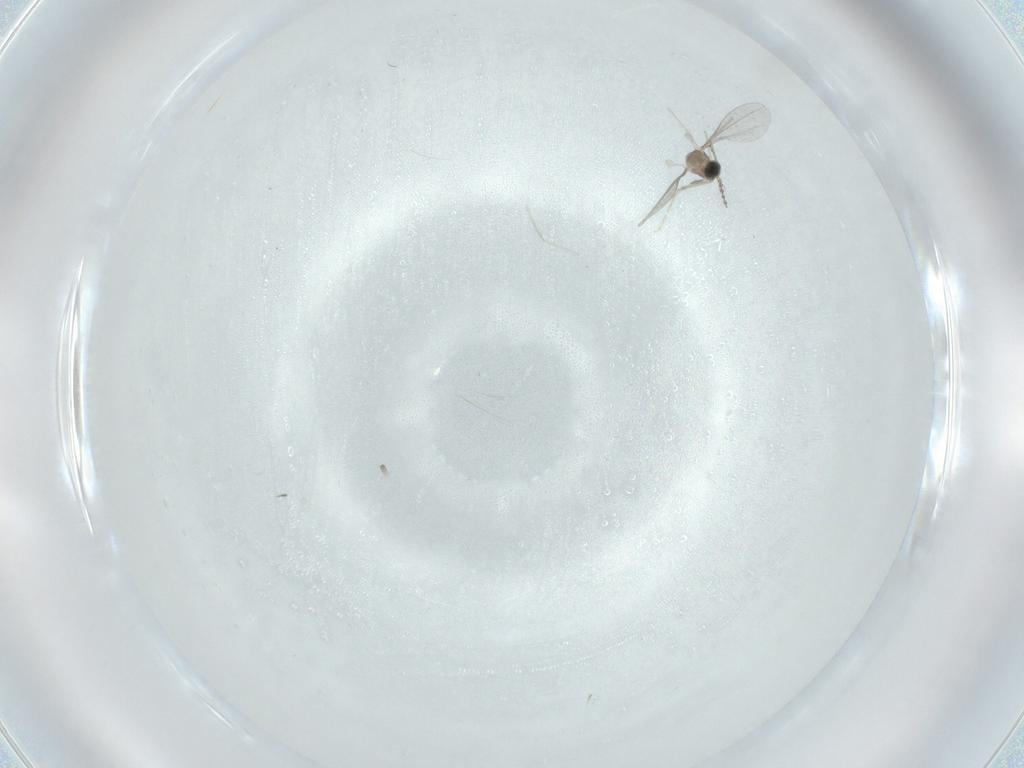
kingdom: Animalia
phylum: Arthropoda
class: Insecta
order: Diptera
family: Cecidomyiidae
